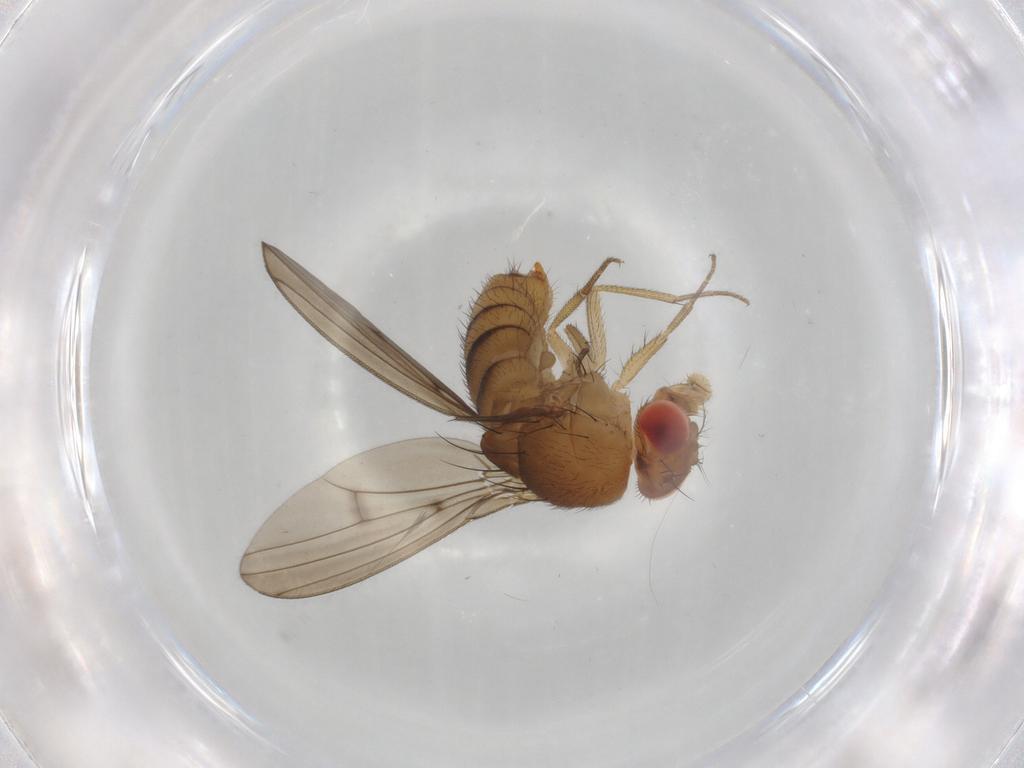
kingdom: Animalia
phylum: Arthropoda
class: Insecta
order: Diptera
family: Drosophilidae
